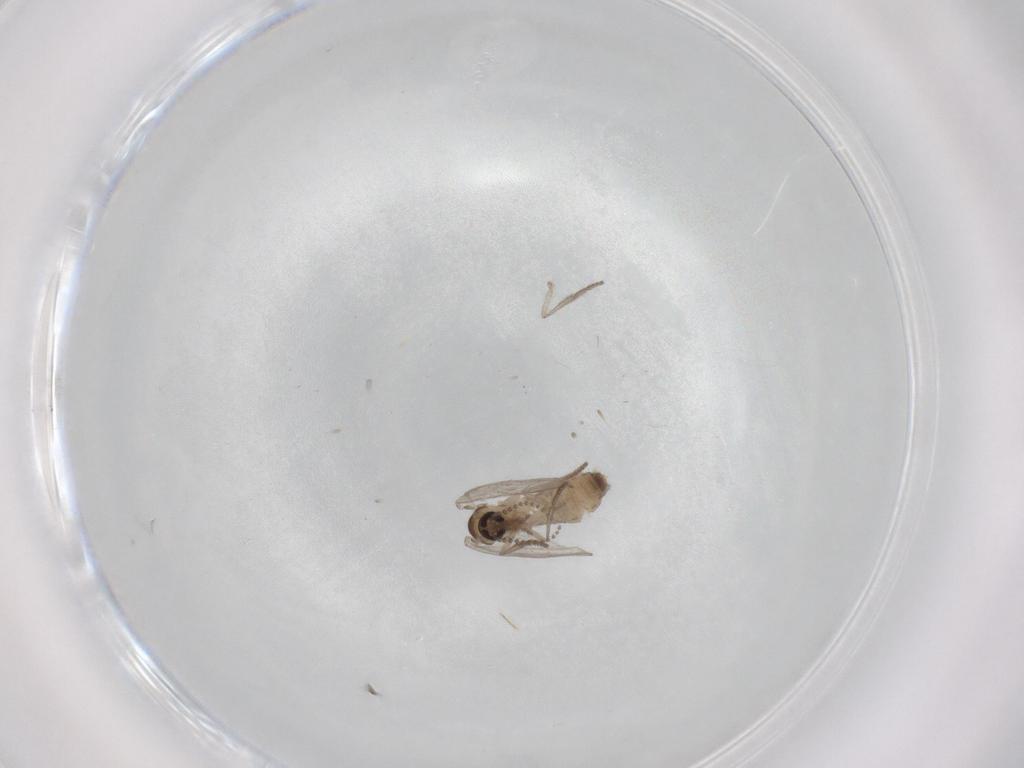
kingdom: Animalia
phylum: Arthropoda
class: Insecta
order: Diptera
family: Psychodidae
